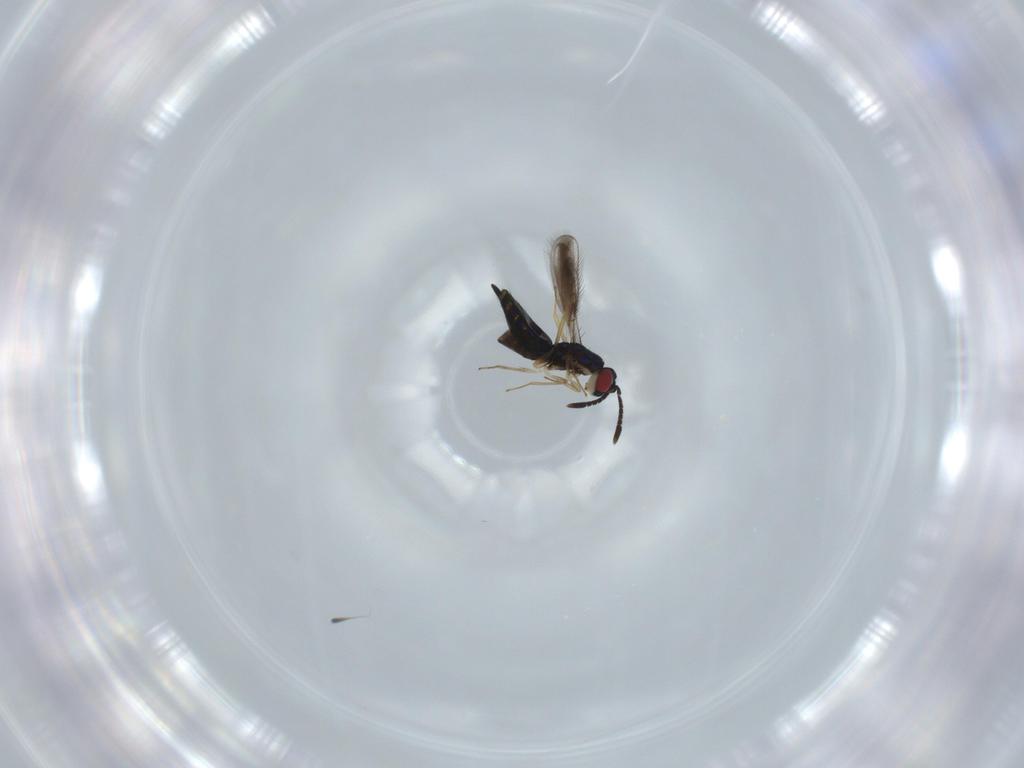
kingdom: Animalia
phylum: Arthropoda
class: Insecta
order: Hymenoptera
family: Pteromalidae
